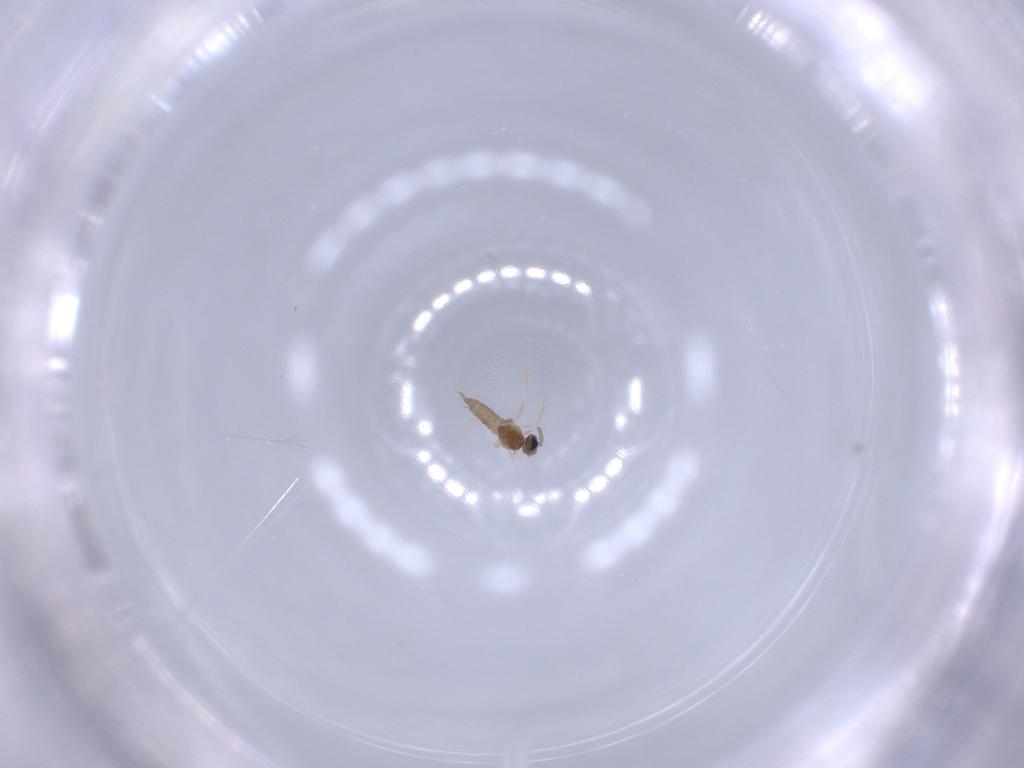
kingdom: Animalia
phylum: Arthropoda
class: Insecta
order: Diptera
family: Cecidomyiidae
